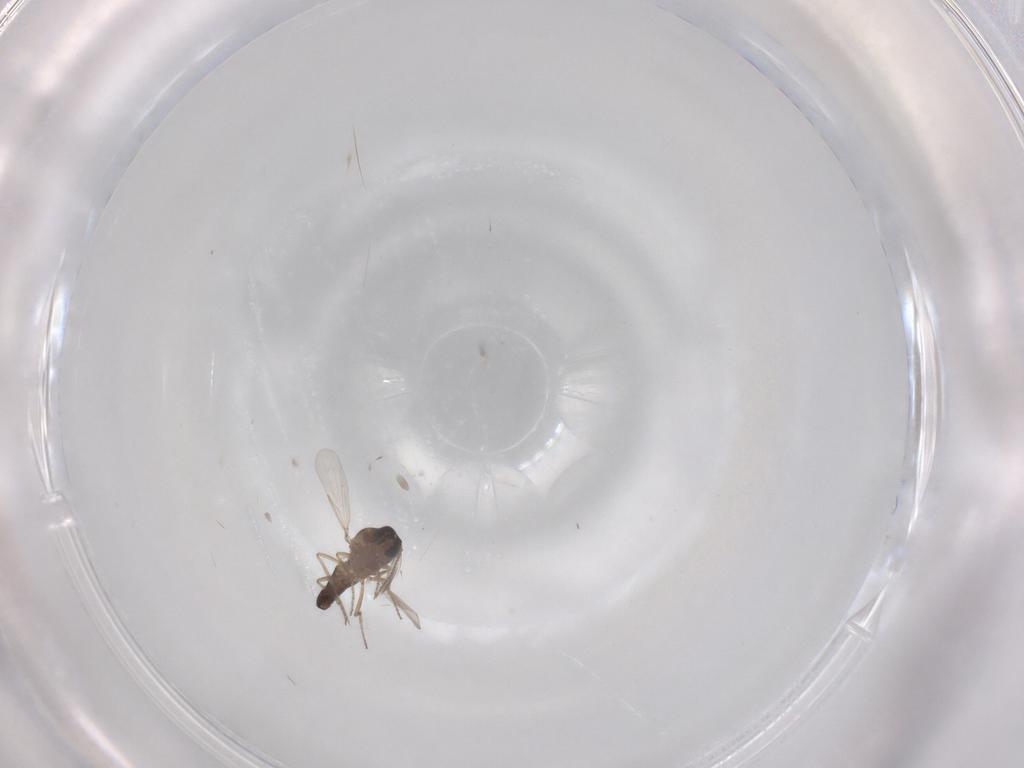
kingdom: Animalia
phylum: Arthropoda
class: Insecta
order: Diptera
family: Ceratopogonidae
